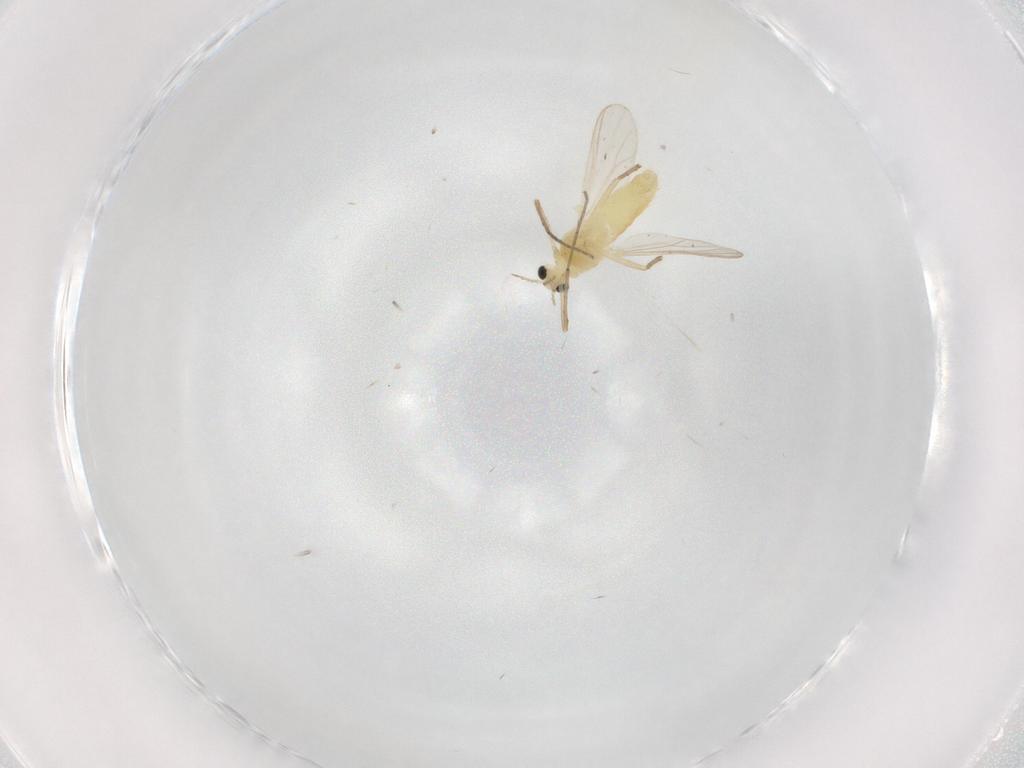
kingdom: Animalia
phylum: Arthropoda
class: Insecta
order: Diptera
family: Chironomidae
